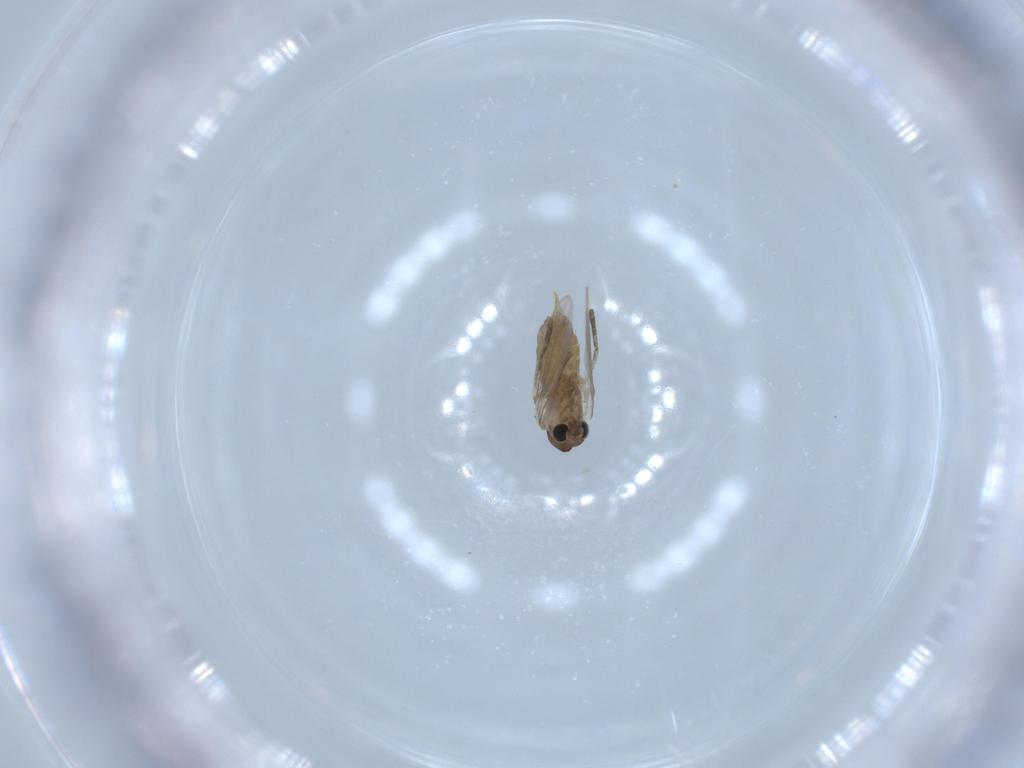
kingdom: Animalia
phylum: Arthropoda
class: Insecta
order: Diptera
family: Psychodidae
